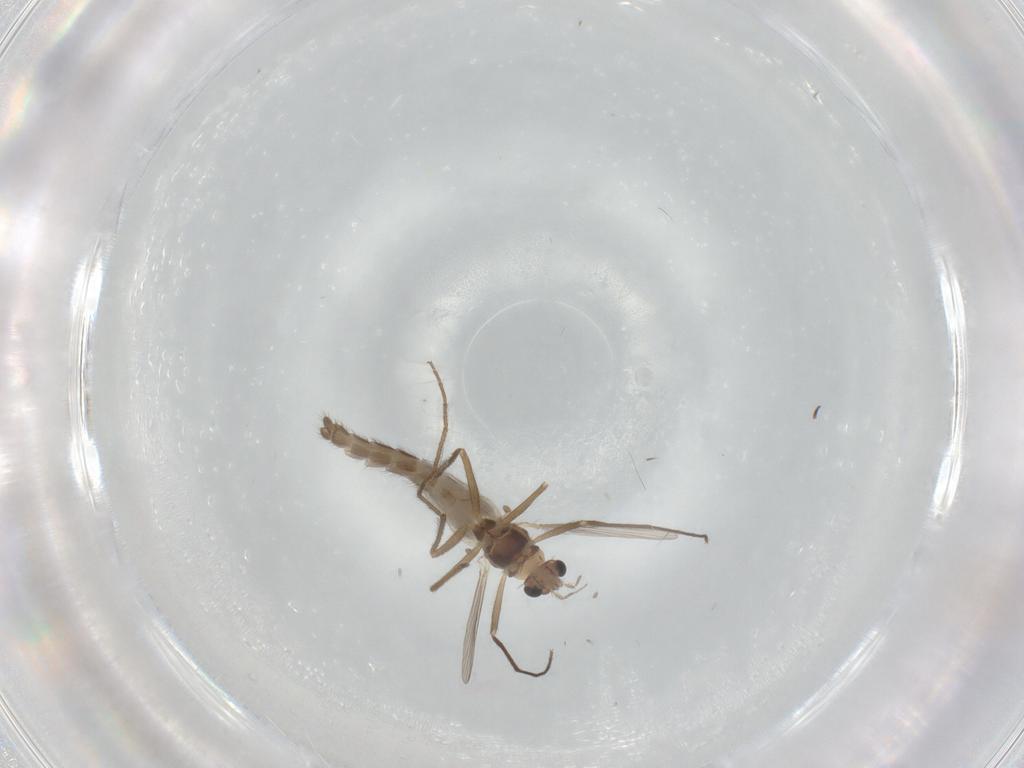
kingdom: Animalia
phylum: Arthropoda
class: Insecta
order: Diptera
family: Chironomidae
